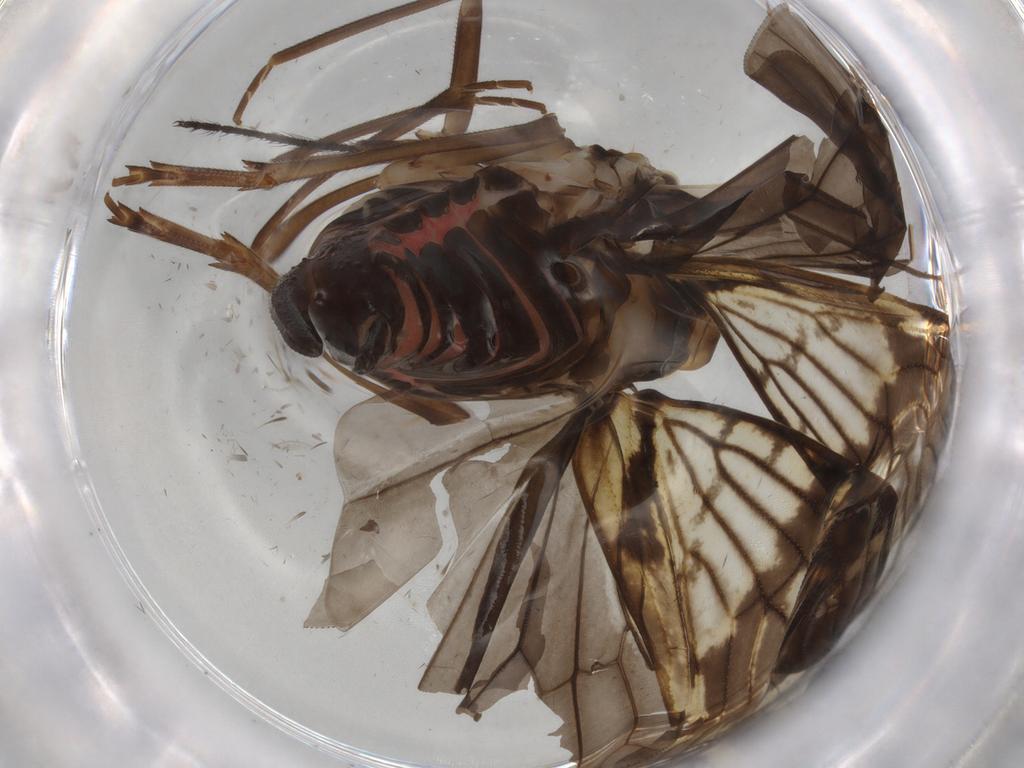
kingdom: Animalia
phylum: Arthropoda
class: Insecta
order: Hemiptera
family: Cixiidae
